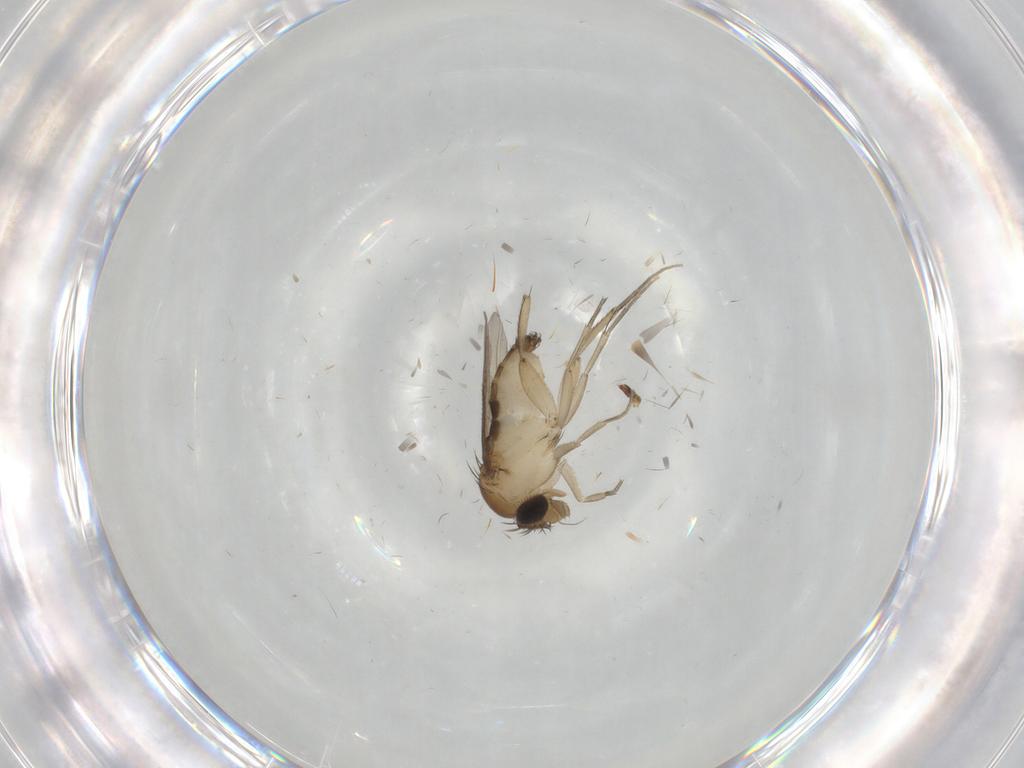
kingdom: Animalia
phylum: Arthropoda
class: Insecta
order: Diptera
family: Phoridae
